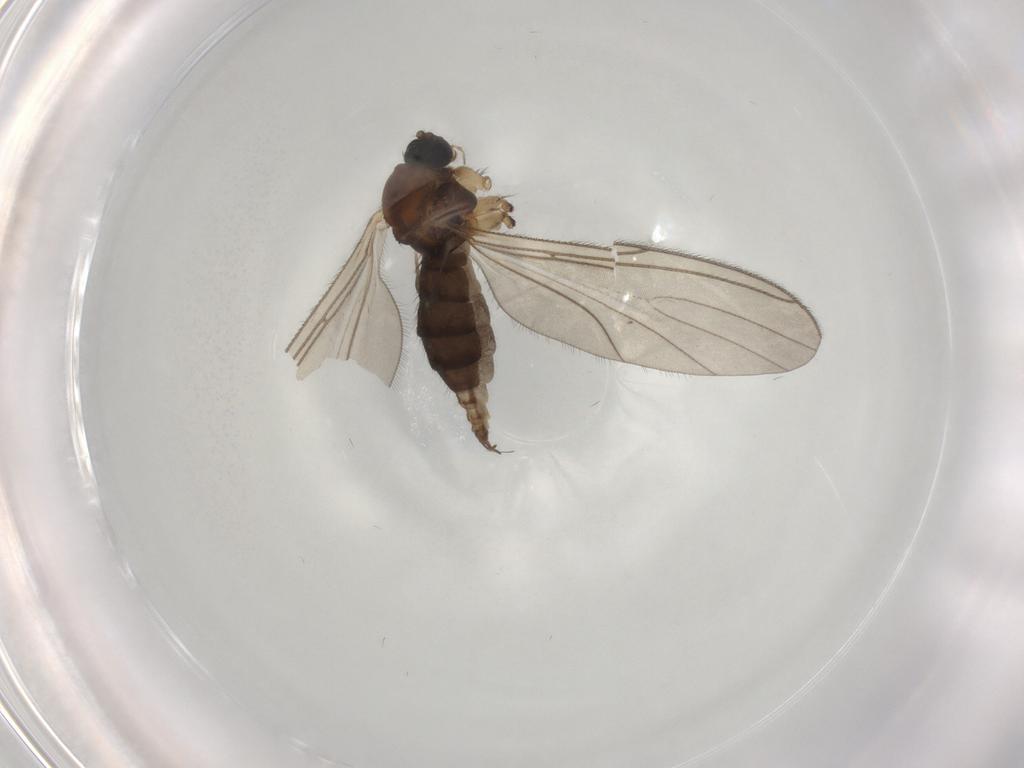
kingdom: Animalia
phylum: Arthropoda
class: Insecta
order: Diptera
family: Sciaridae
